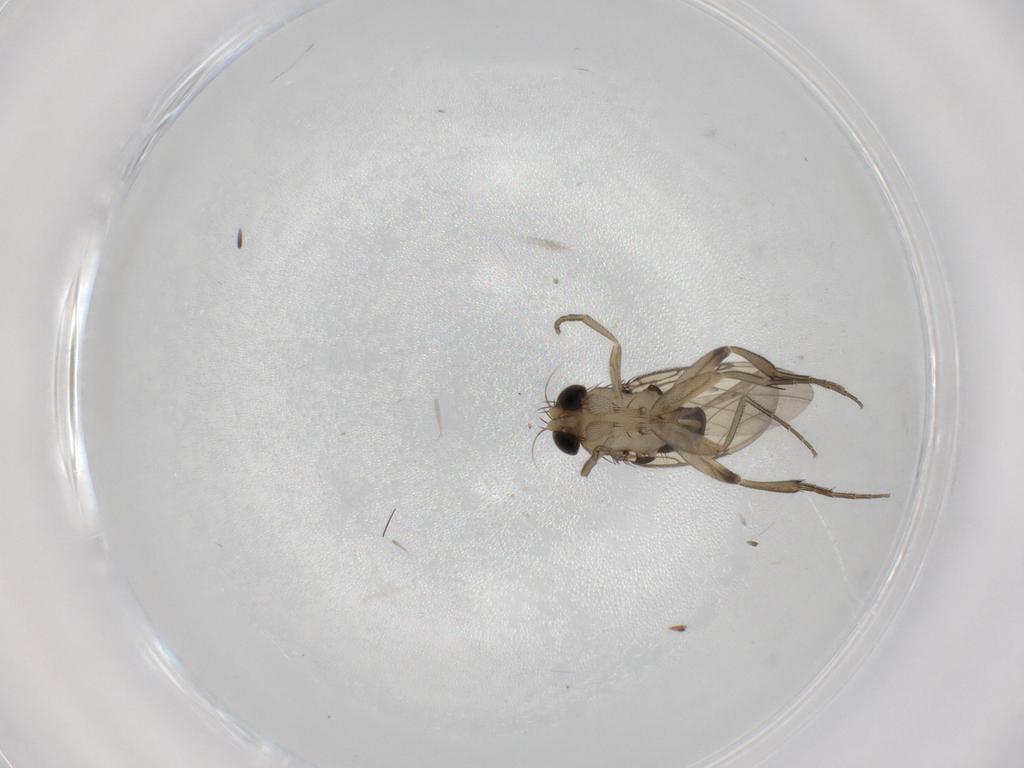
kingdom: Animalia
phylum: Arthropoda
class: Insecta
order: Diptera
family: Phoridae
